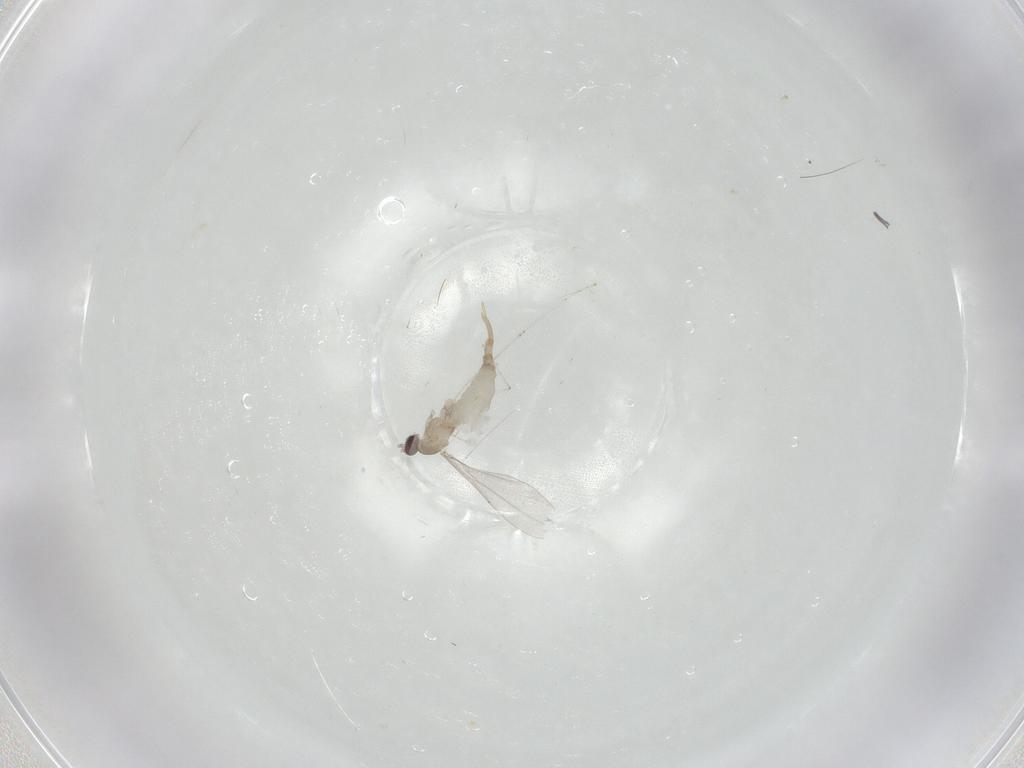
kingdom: Animalia
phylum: Arthropoda
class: Insecta
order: Diptera
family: Cecidomyiidae
